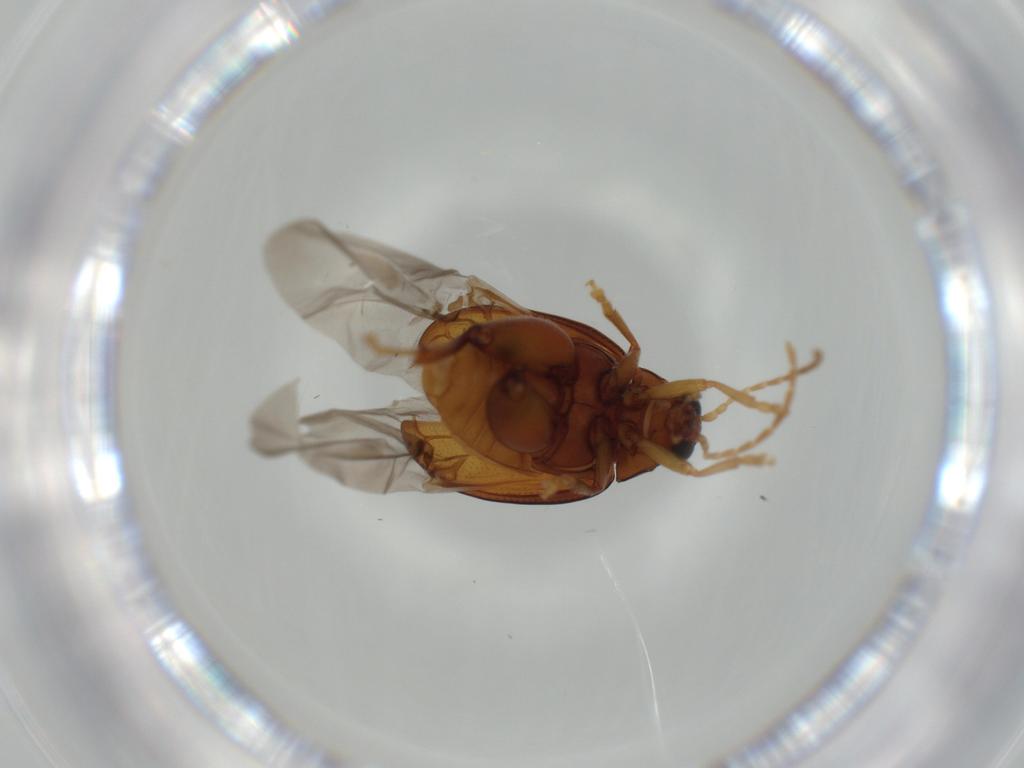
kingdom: Animalia
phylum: Arthropoda
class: Insecta
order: Coleoptera
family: Chrysomelidae
